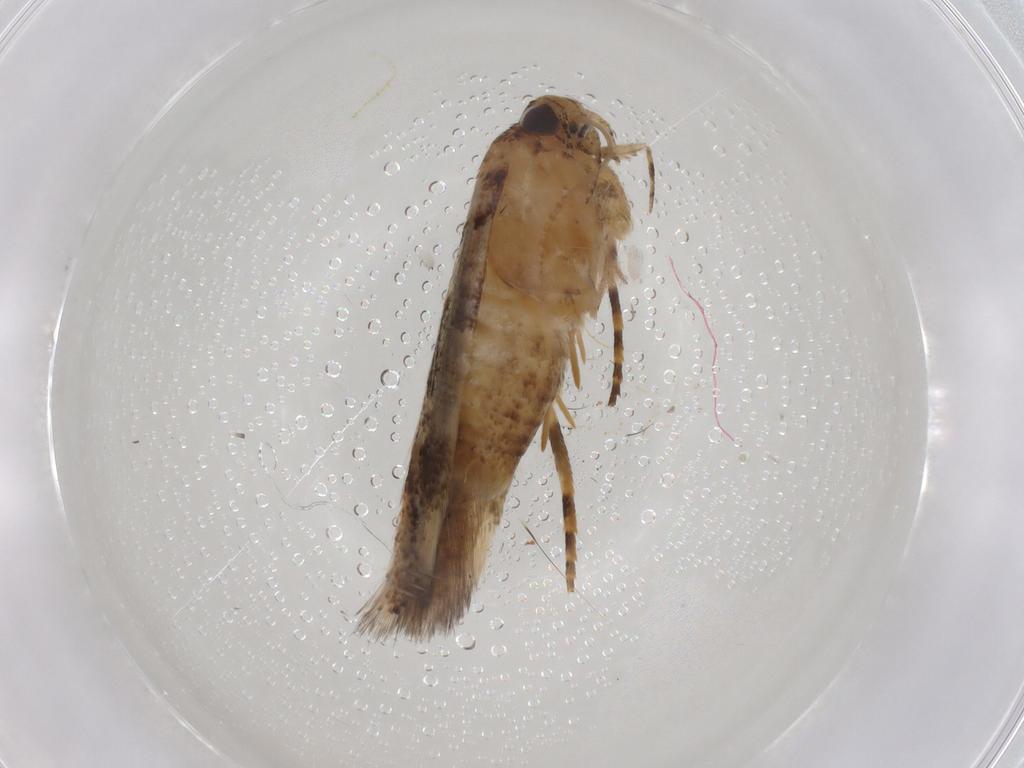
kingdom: Animalia
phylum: Arthropoda
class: Insecta
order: Lepidoptera
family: Gelechiidae
